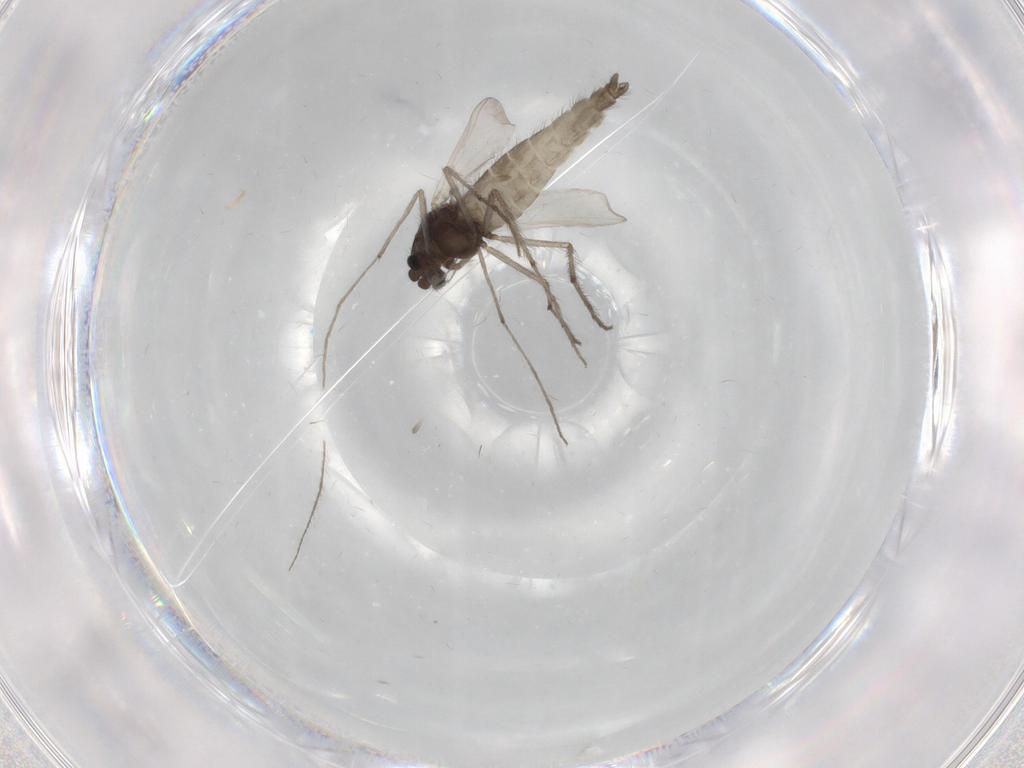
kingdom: Animalia
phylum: Arthropoda
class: Insecta
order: Diptera
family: Chironomidae
